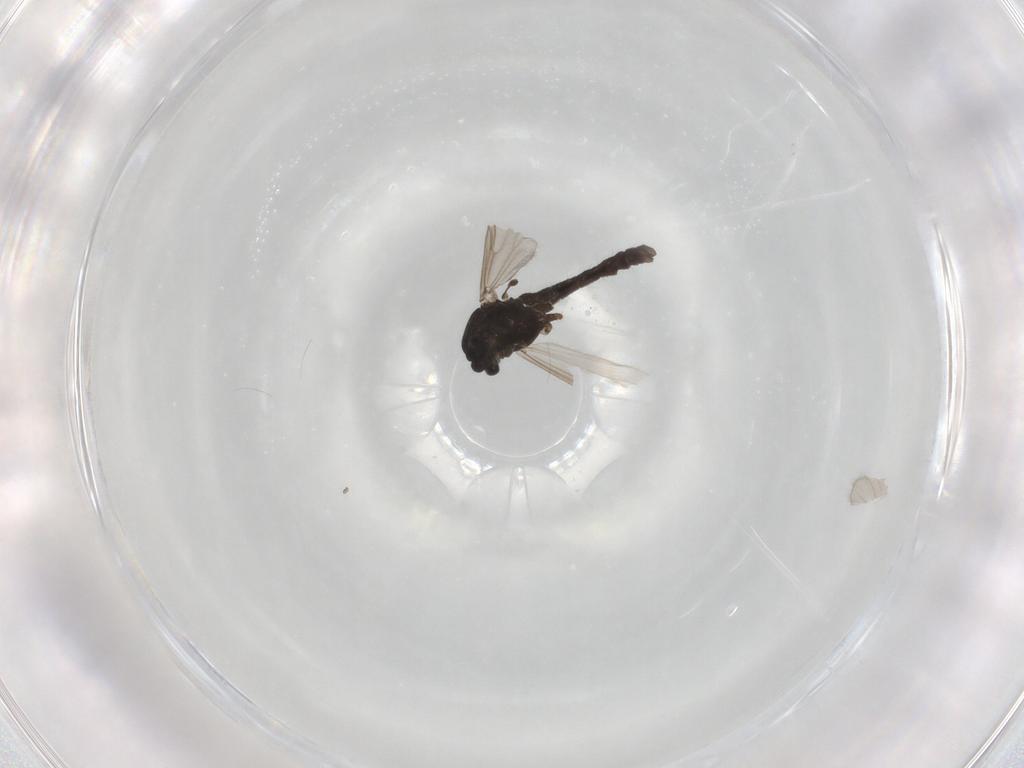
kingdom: Animalia
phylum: Arthropoda
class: Insecta
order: Diptera
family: Chironomidae
